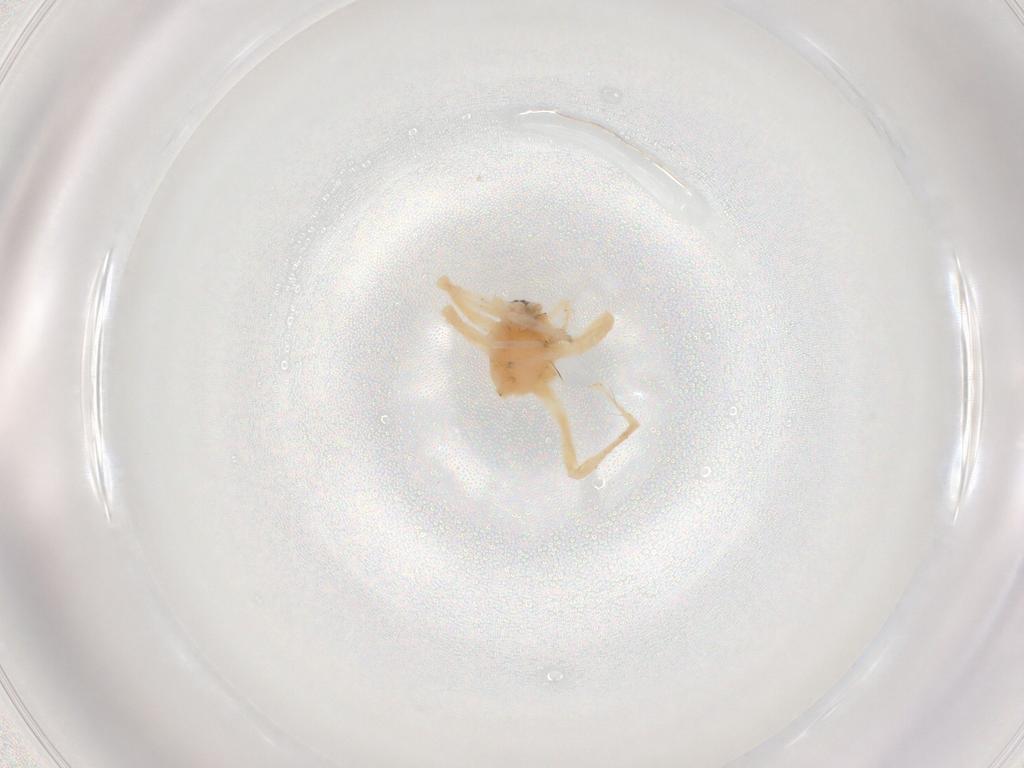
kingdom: Animalia
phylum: Arthropoda
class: Arachnida
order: Araneae
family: Anyphaenidae
